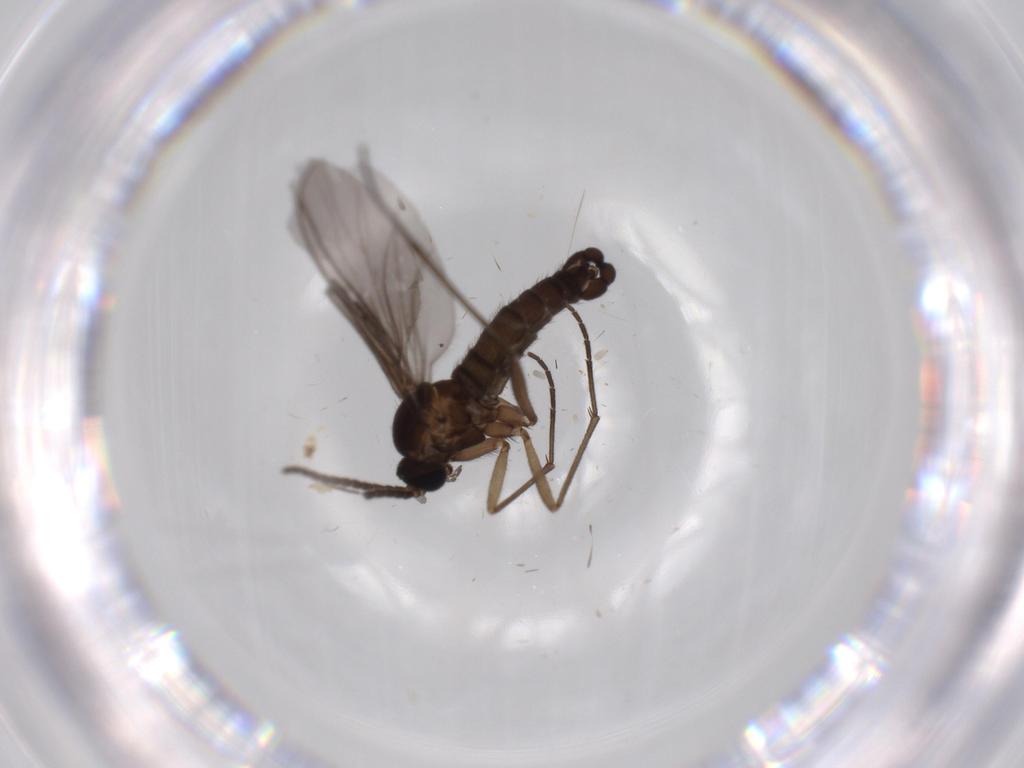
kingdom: Animalia
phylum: Arthropoda
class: Insecta
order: Diptera
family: Sciaridae
